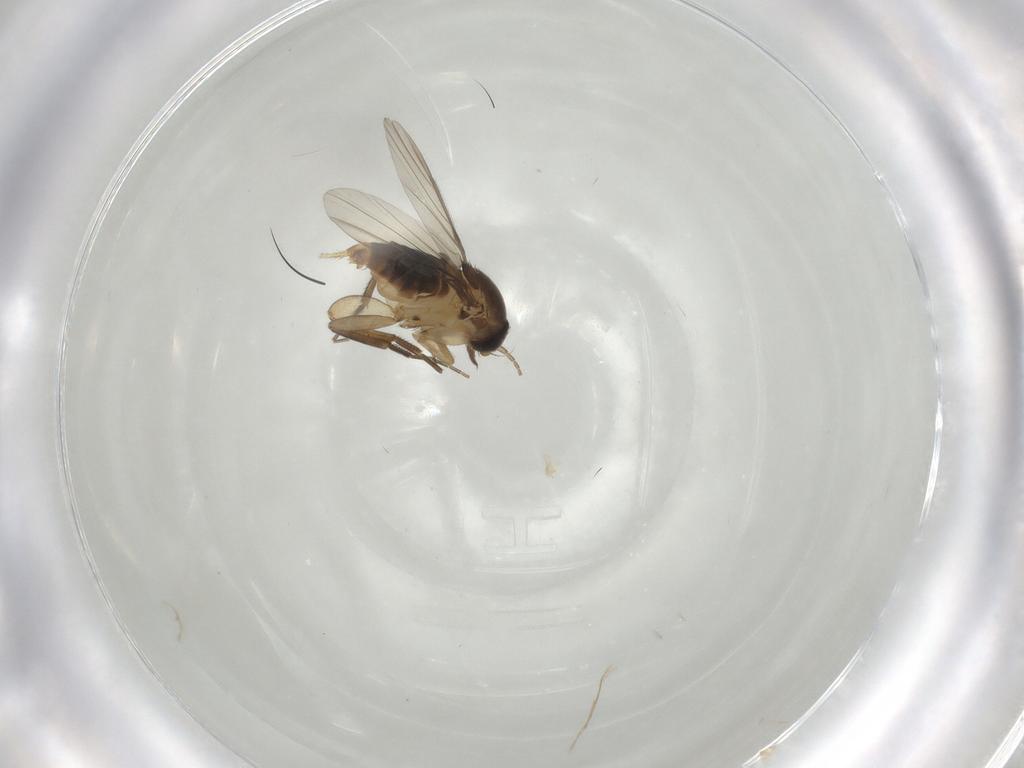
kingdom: Animalia
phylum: Arthropoda
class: Insecta
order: Diptera
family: Phoridae
